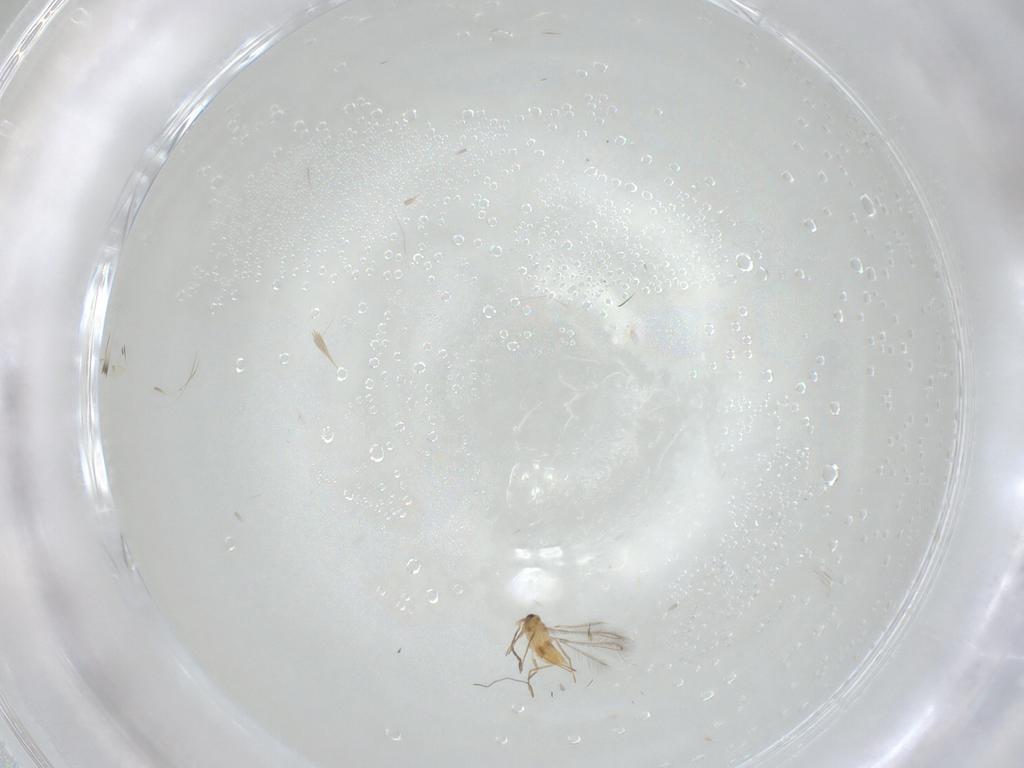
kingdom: Animalia
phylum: Arthropoda
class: Insecta
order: Hymenoptera
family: Mymaridae
